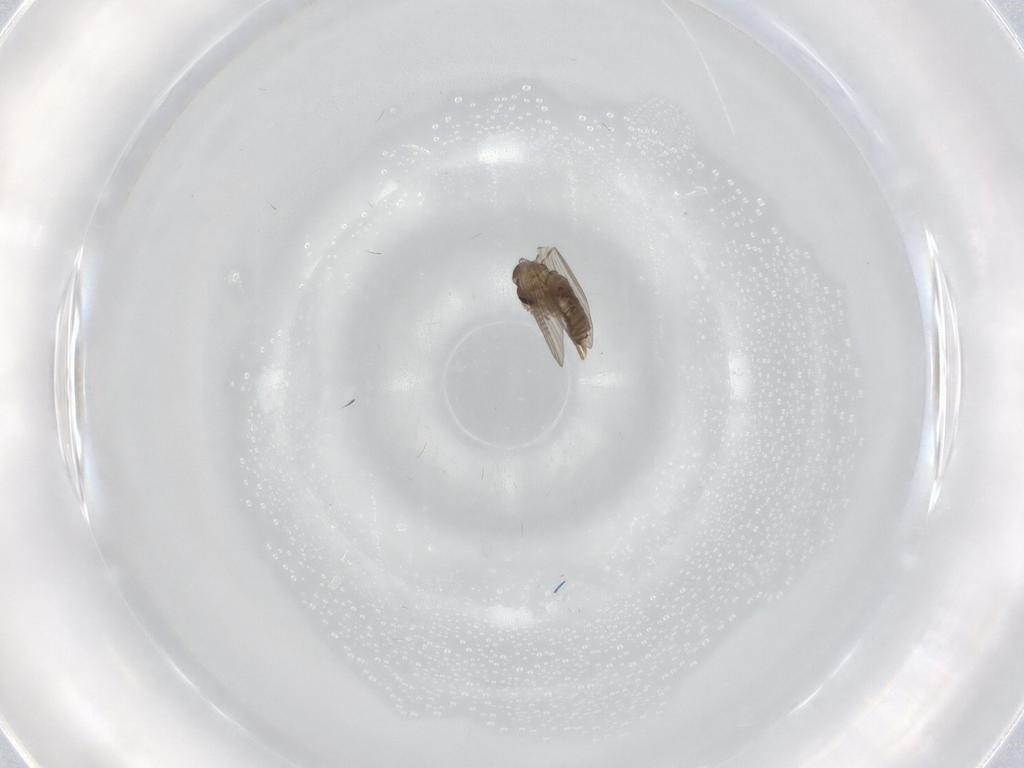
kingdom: Animalia
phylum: Arthropoda
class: Insecta
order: Diptera
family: Psychodidae
